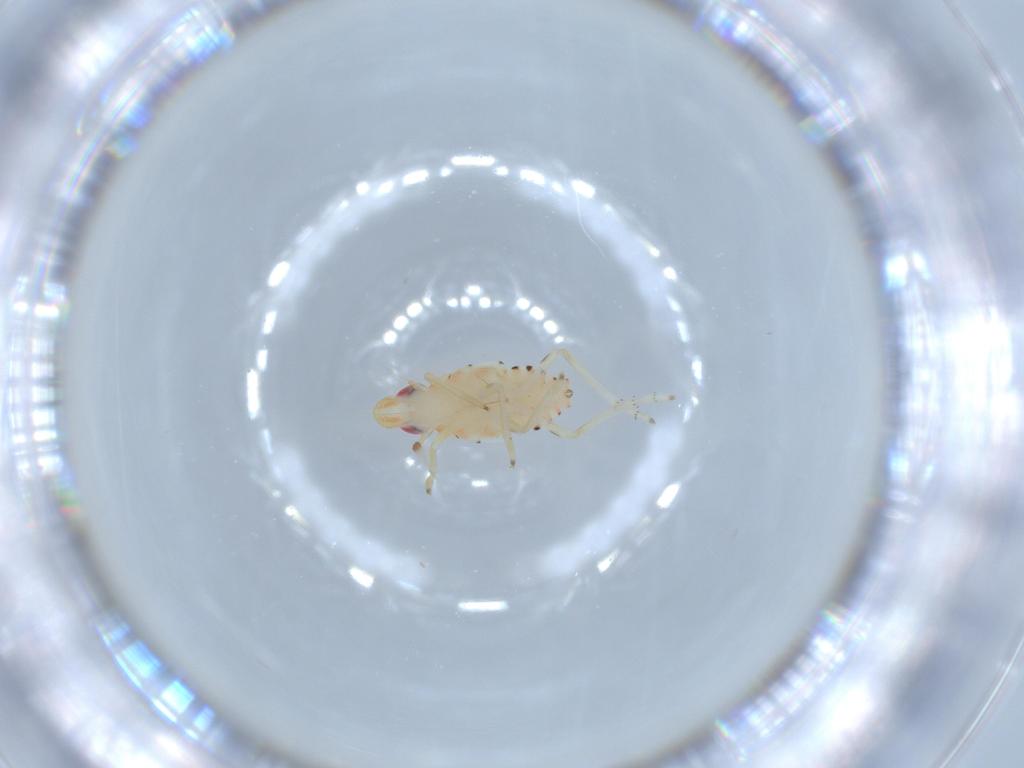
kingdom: Animalia
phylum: Arthropoda
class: Insecta
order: Hemiptera
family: Tropiduchidae
